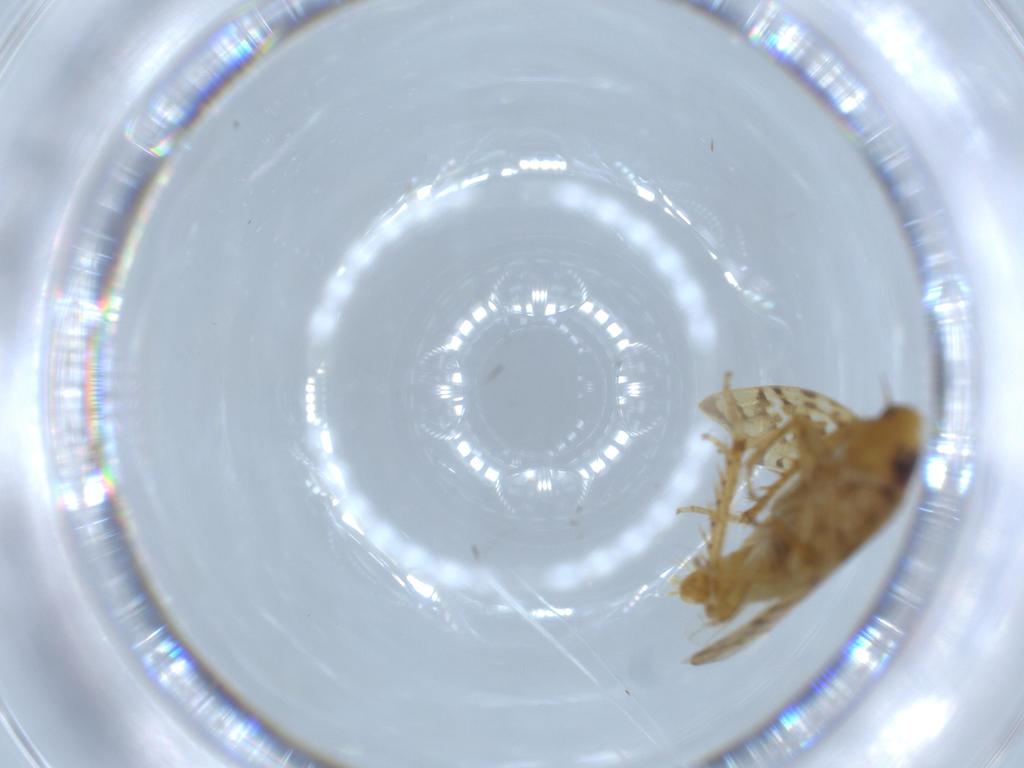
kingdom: Animalia
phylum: Arthropoda
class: Insecta
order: Hemiptera
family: Cicadellidae
